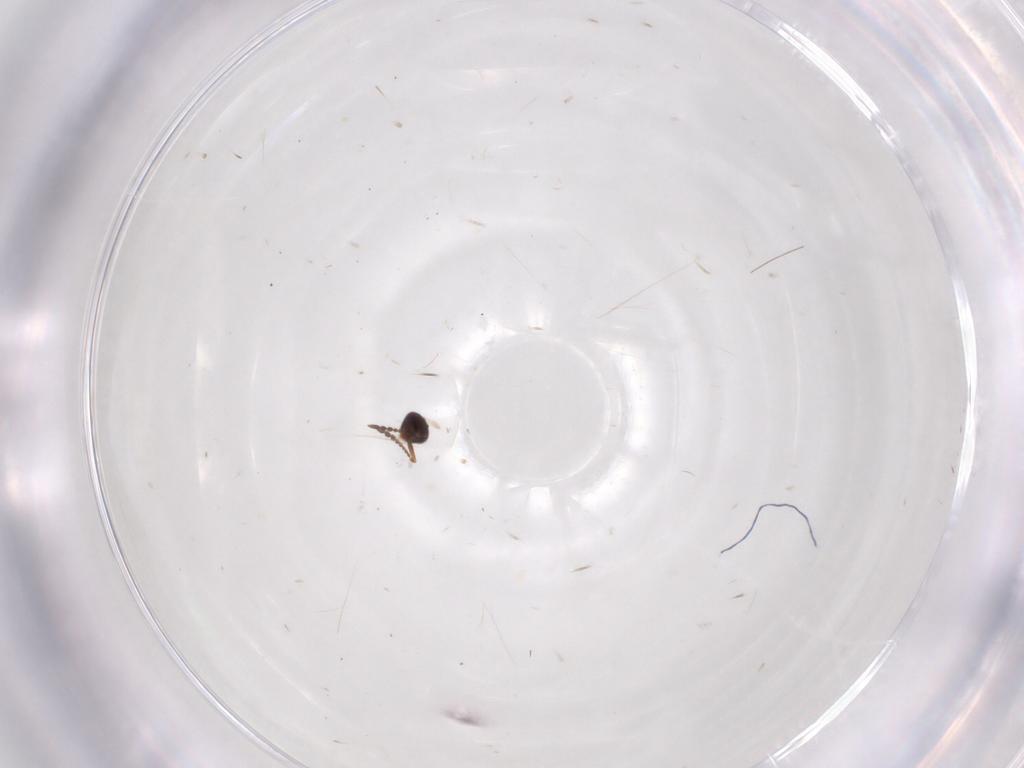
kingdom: Animalia
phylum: Arthropoda
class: Insecta
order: Hymenoptera
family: Scelionidae
